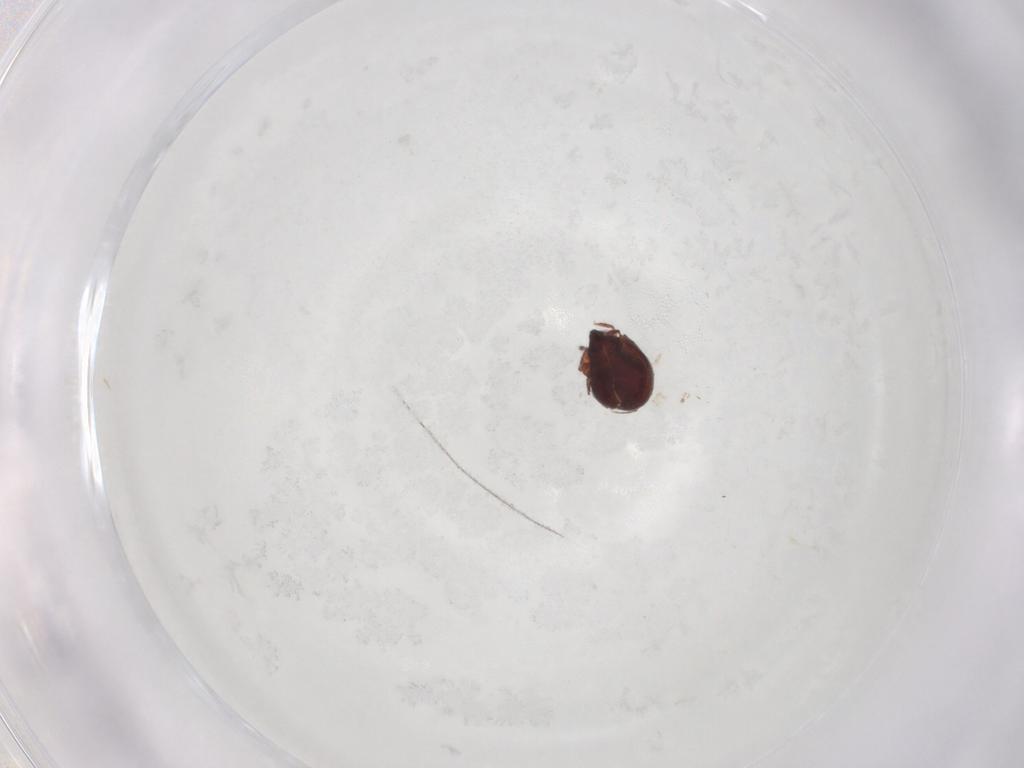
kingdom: Animalia
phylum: Arthropoda
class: Arachnida
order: Sarcoptiformes
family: Humerobatidae
